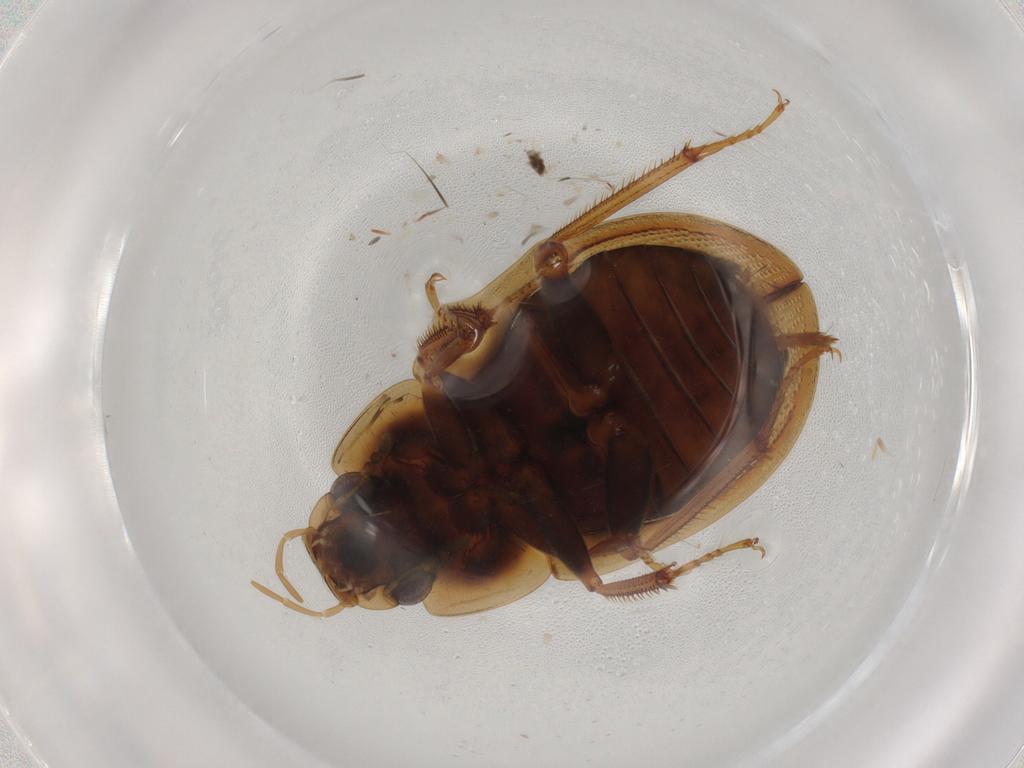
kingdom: Animalia
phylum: Arthropoda
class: Insecta
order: Coleoptera
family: Hydrophilidae
